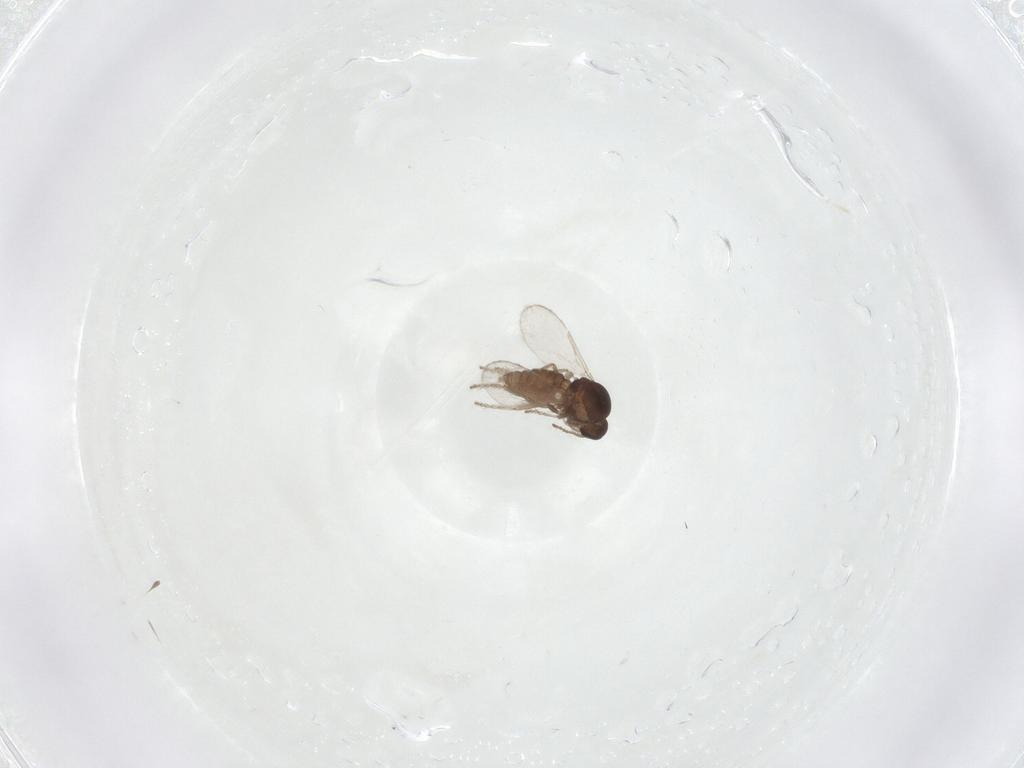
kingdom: Animalia
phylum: Arthropoda
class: Insecta
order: Diptera
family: Ceratopogonidae
